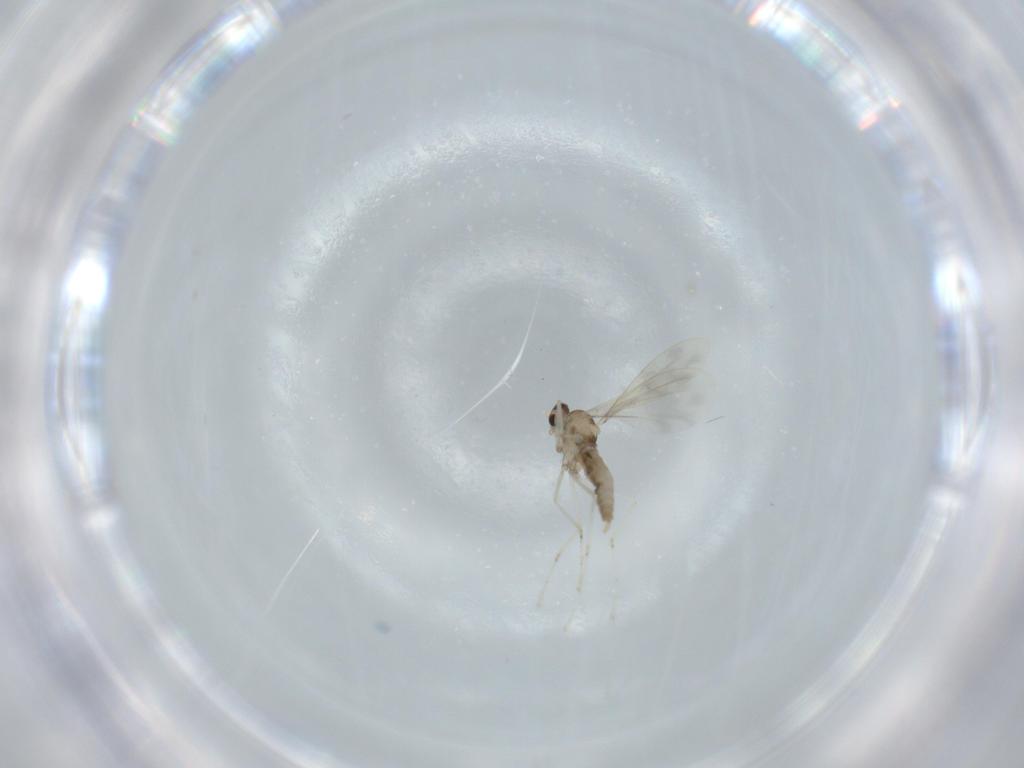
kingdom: Animalia
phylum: Arthropoda
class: Insecta
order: Diptera
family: Cecidomyiidae
